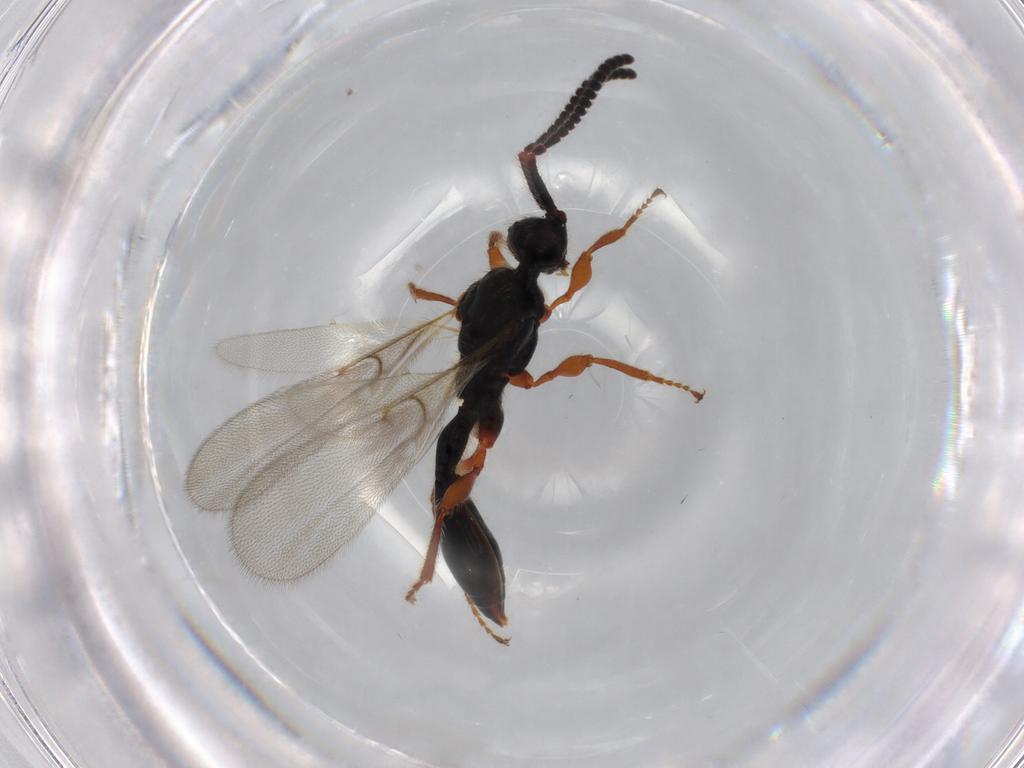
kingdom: Animalia
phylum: Arthropoda
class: Insecta
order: Hymenoptera
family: Diapriidae
